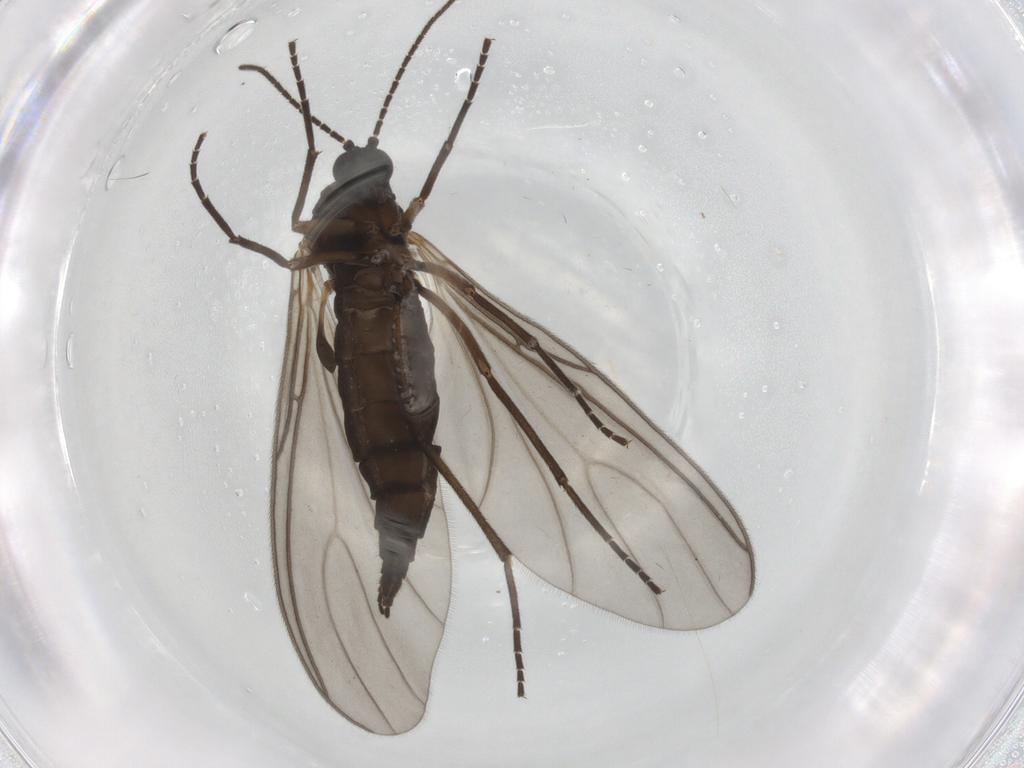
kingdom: Animalia
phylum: Arthropoda
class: Insecta
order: Diptera
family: Sciaridae
